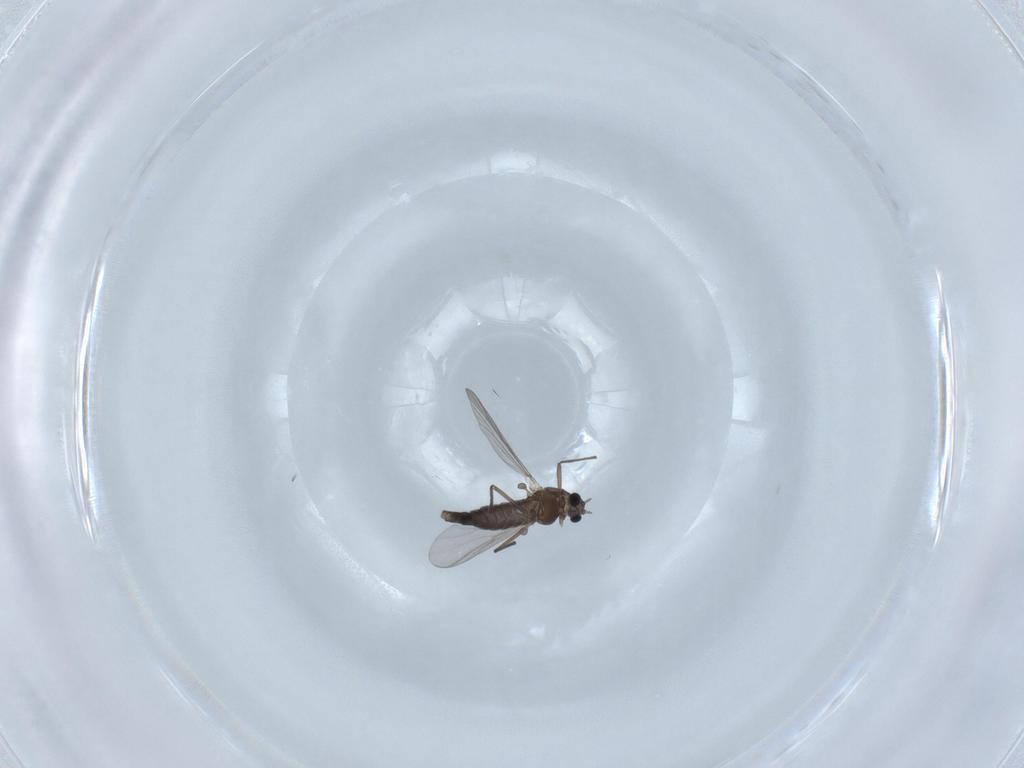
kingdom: Animalia
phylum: Arthropoda
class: Insecta
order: Diptera
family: Chironomidae
